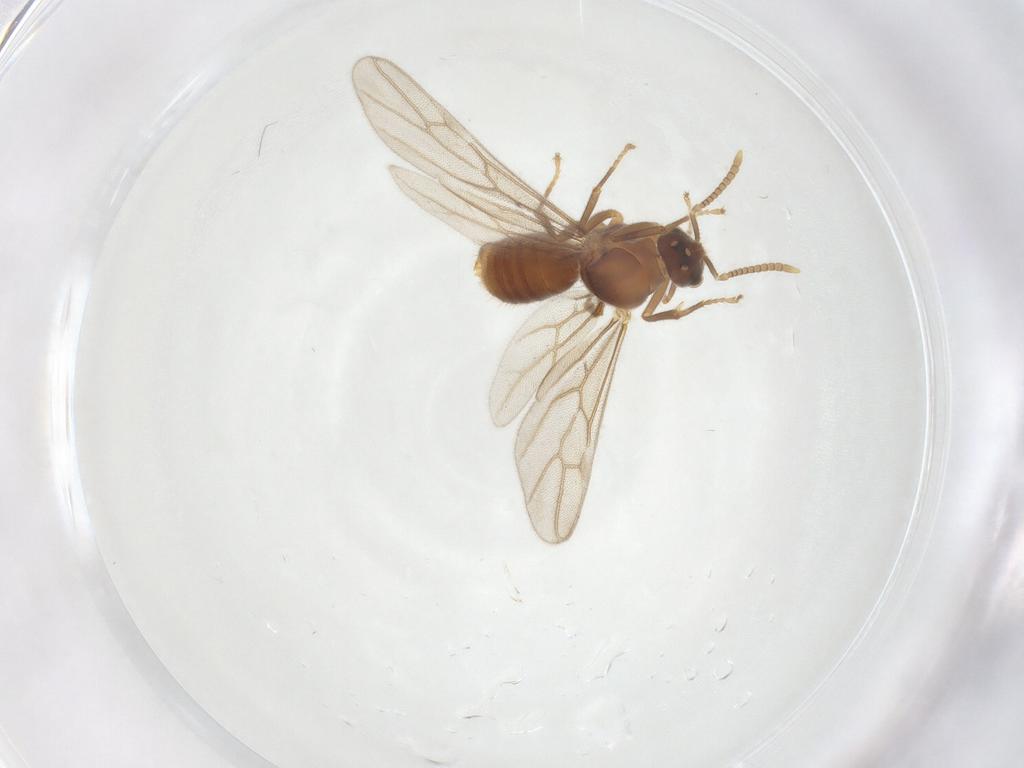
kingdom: Animalia
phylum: Arthropoda
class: Insecta
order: Hymenoptera
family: Formicidae
